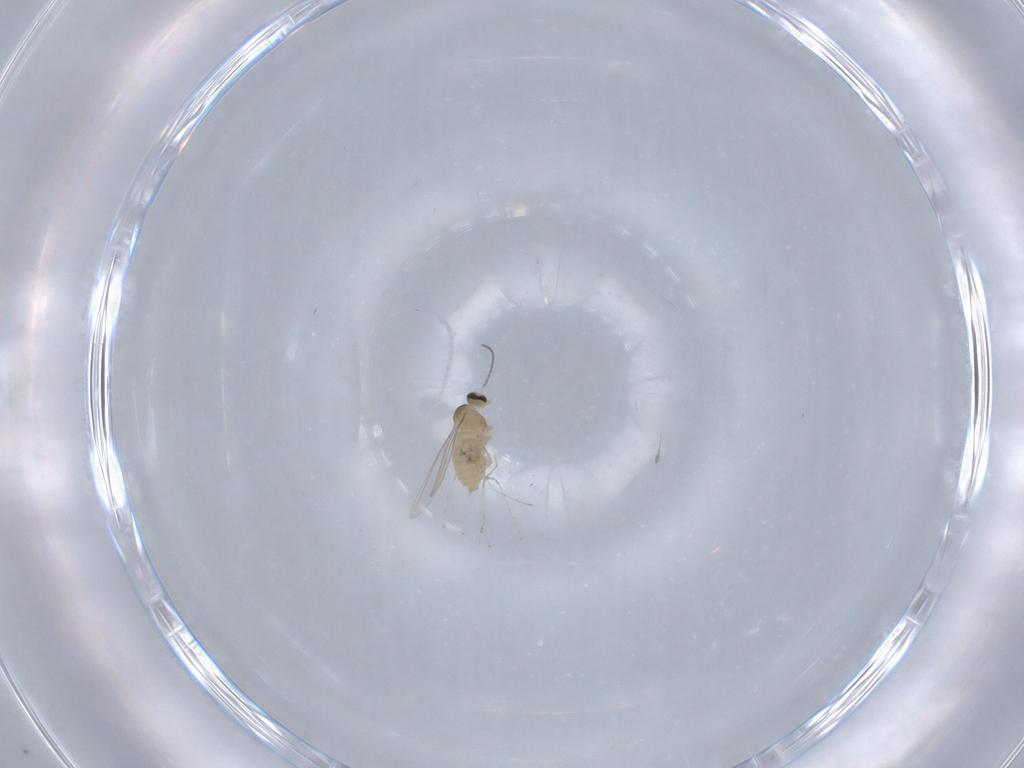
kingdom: Animalia
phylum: Arthropoda
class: Insecta
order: Diptera
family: Cecidomyiidae
